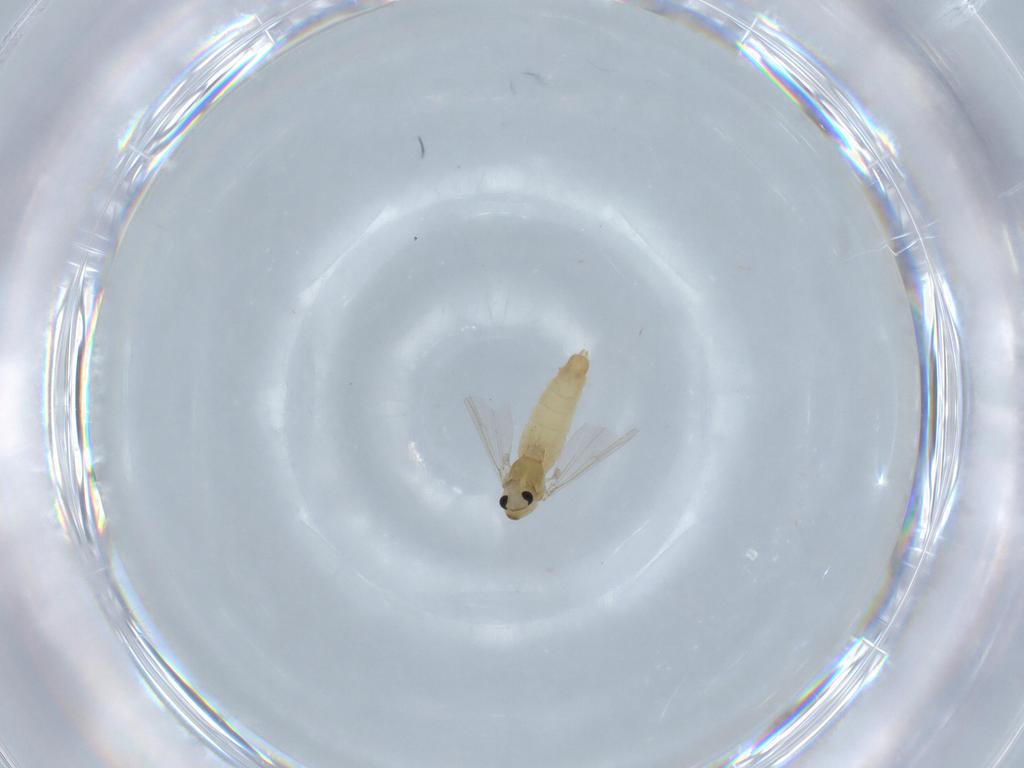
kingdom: Animalia
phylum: Arthropoda
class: Insecta
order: Diptera
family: Chironomidae
